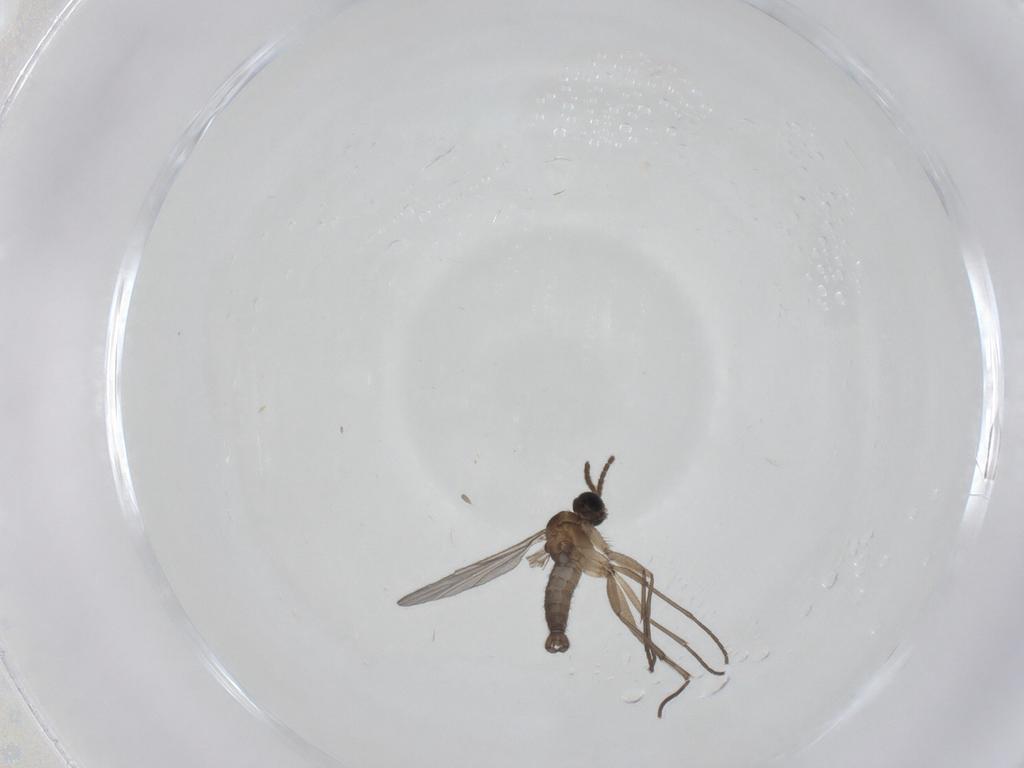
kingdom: Animalia
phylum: Arthropoda
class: Insecta
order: Diptera
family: Sciaridae
